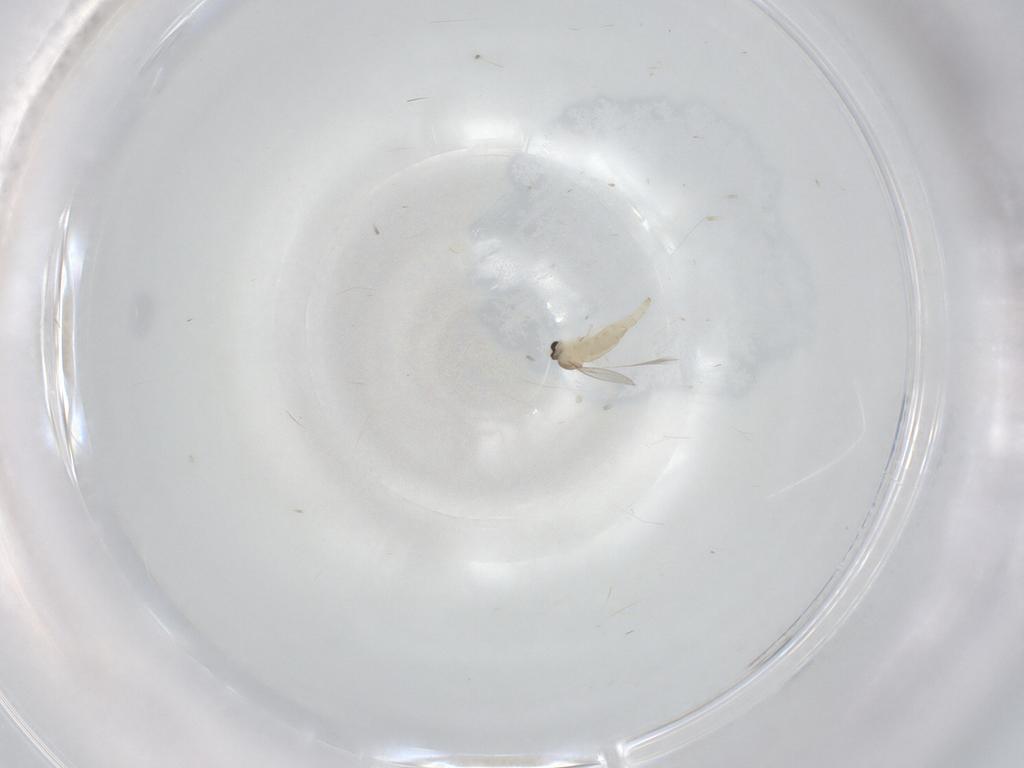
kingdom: Animalia
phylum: Arthropoda
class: Insecta
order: Diptera
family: Cecidomyiidae
